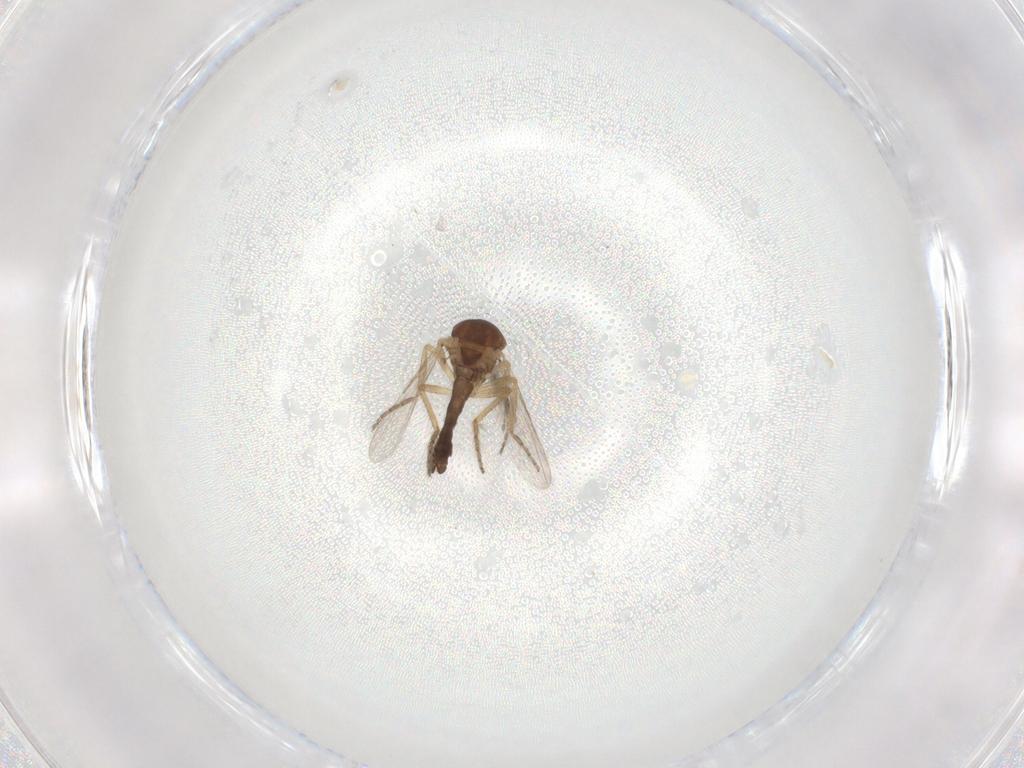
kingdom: Animalia
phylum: Arthropoda
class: Insecta
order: Diptera
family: Ceratopogonidae
